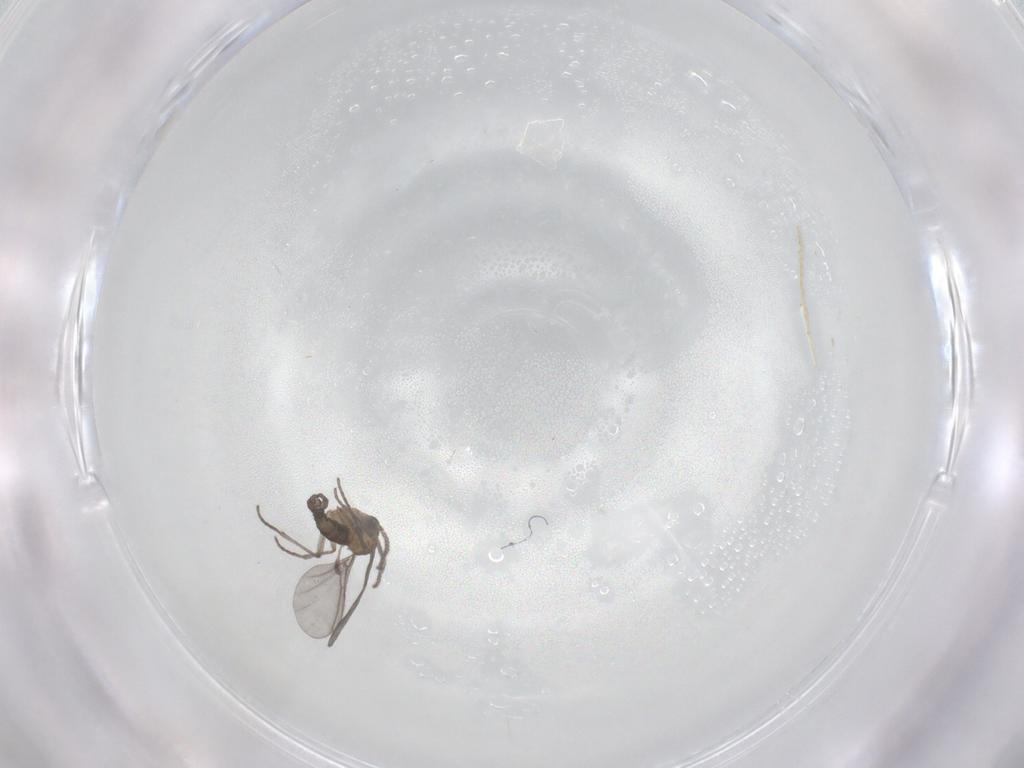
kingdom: Animalia
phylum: Arthropoda
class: Insecta
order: Diptera
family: Sciaridae
